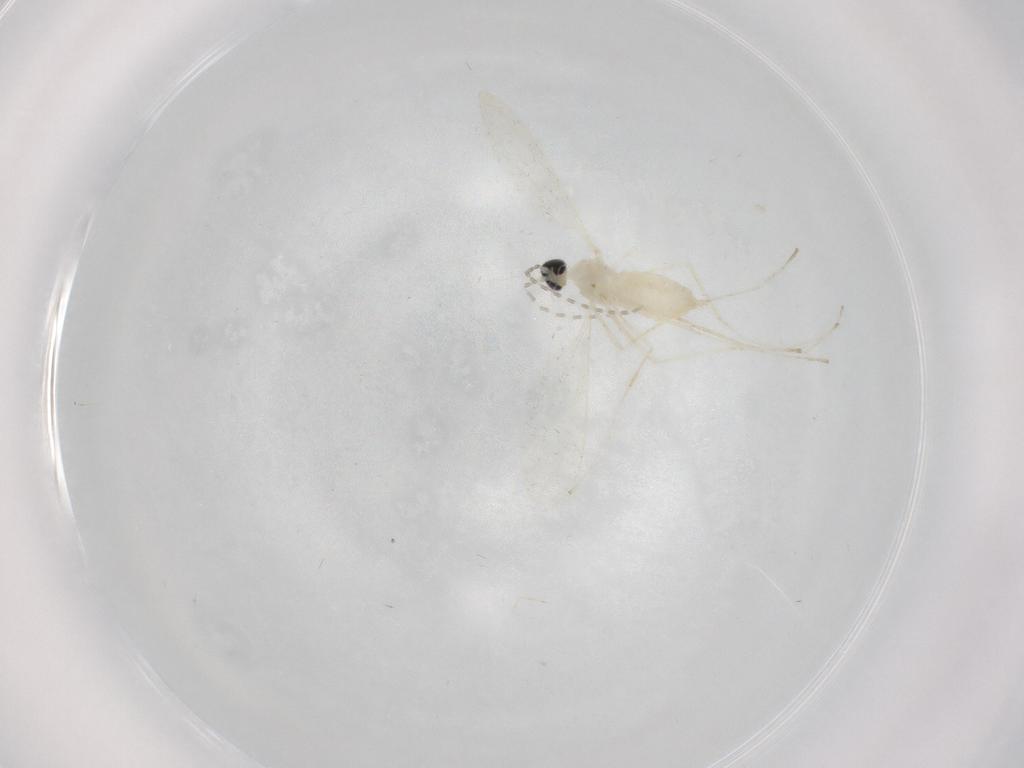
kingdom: Animalia
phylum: Arthropoda
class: Insecta
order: Diptera
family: Cecidomyiidae
